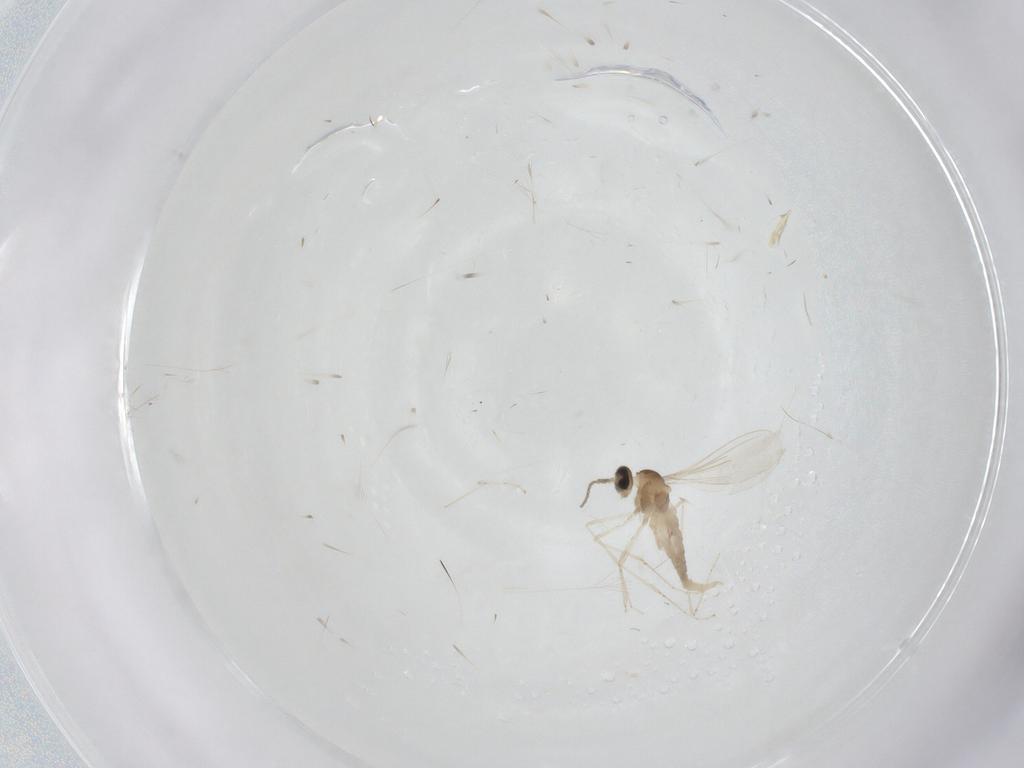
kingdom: Animalia
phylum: Arthropoda
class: Insecta
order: Diptera
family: Cecidomyiidae
